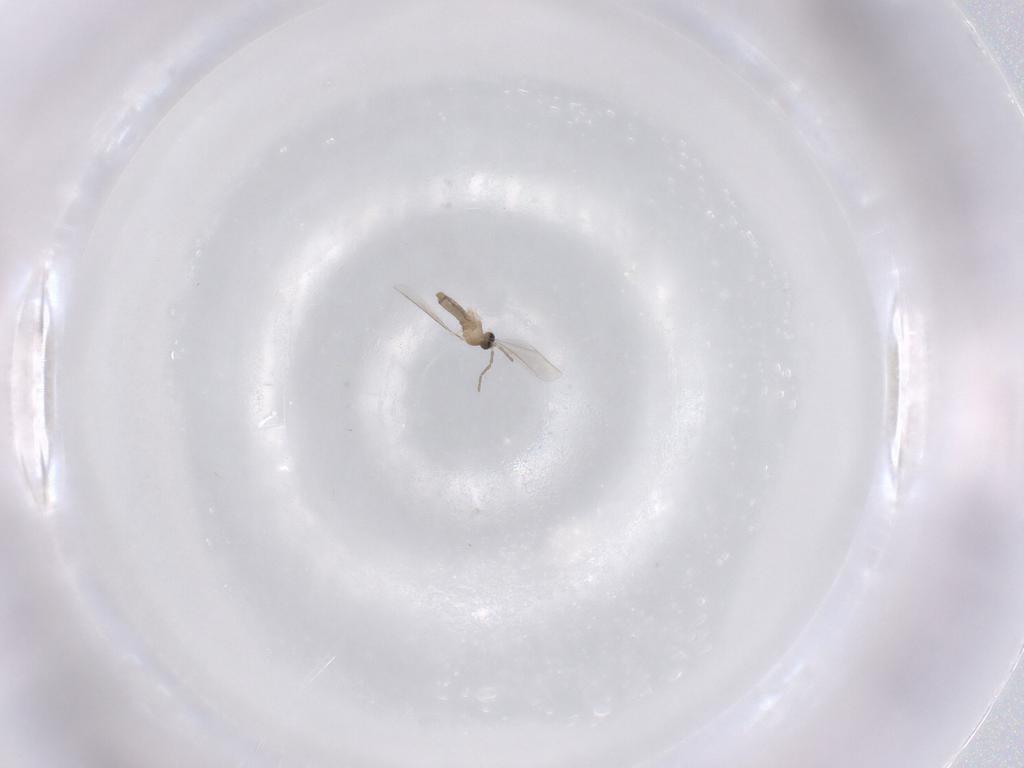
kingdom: Animalia
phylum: Arthropoda
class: Insecta
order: Diptera
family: Cecidomyiidae
